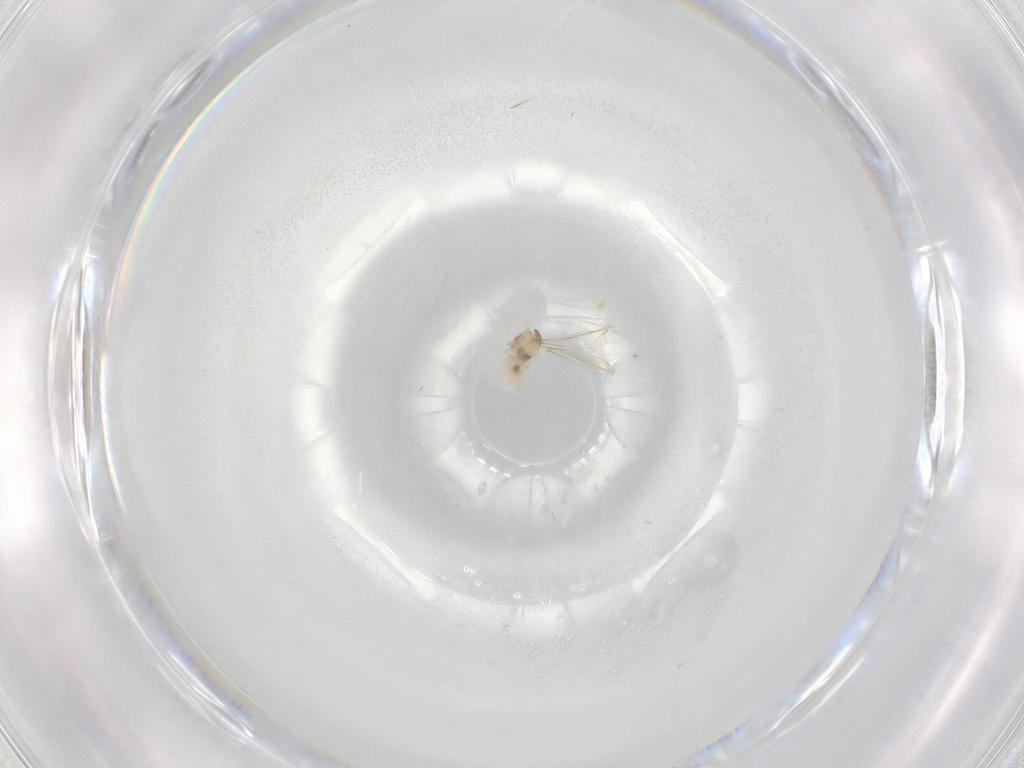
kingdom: Animalia
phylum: Arthropoda
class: Insecta
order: Diptera
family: Cecidomyiidae
